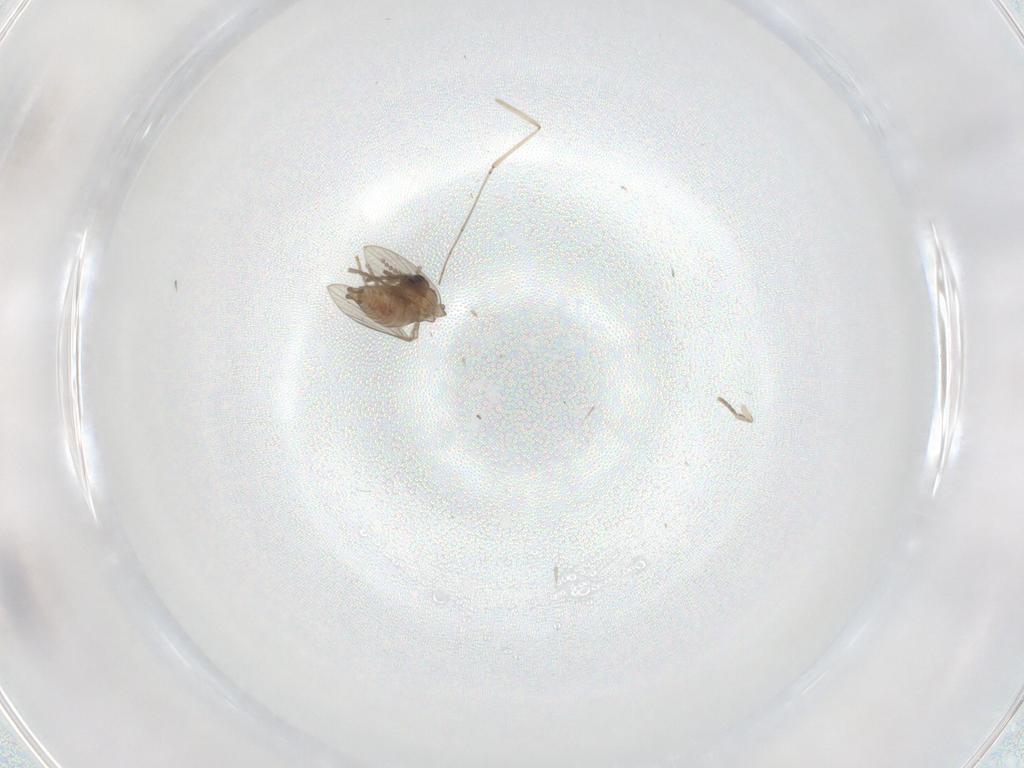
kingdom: Animalia
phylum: Arthropoda
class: Insecta
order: Diptera
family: Psychodidae
